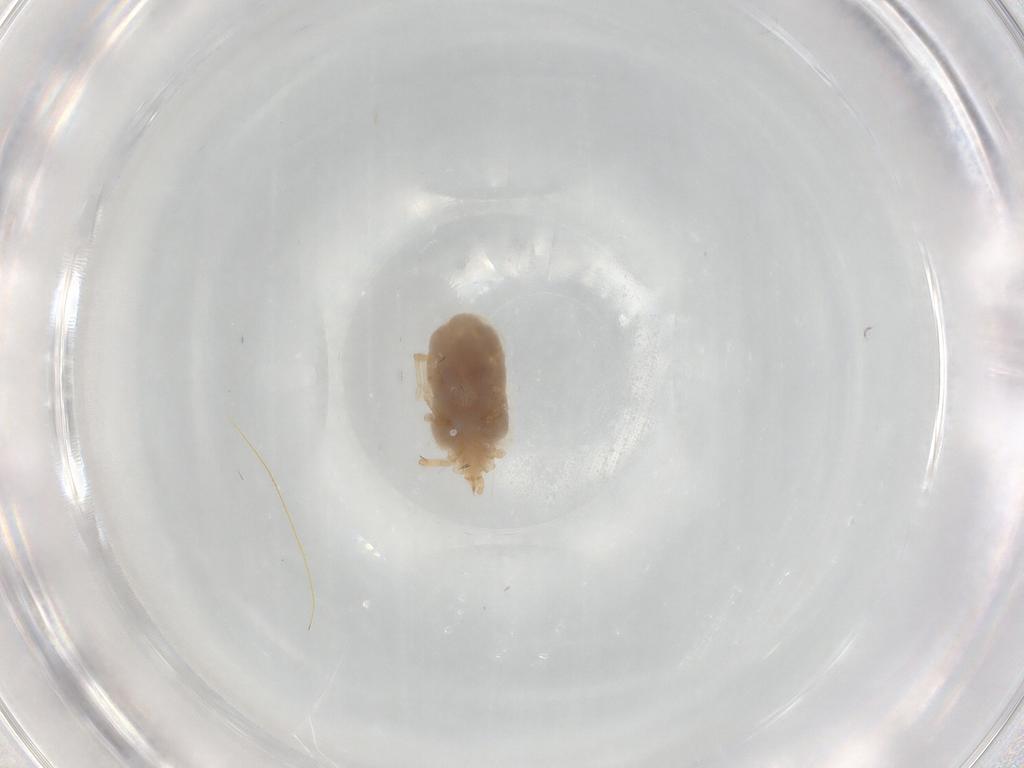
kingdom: Animalia
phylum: Arthropoda
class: Arachnida
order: Trombidiformes
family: Erythraeidae
